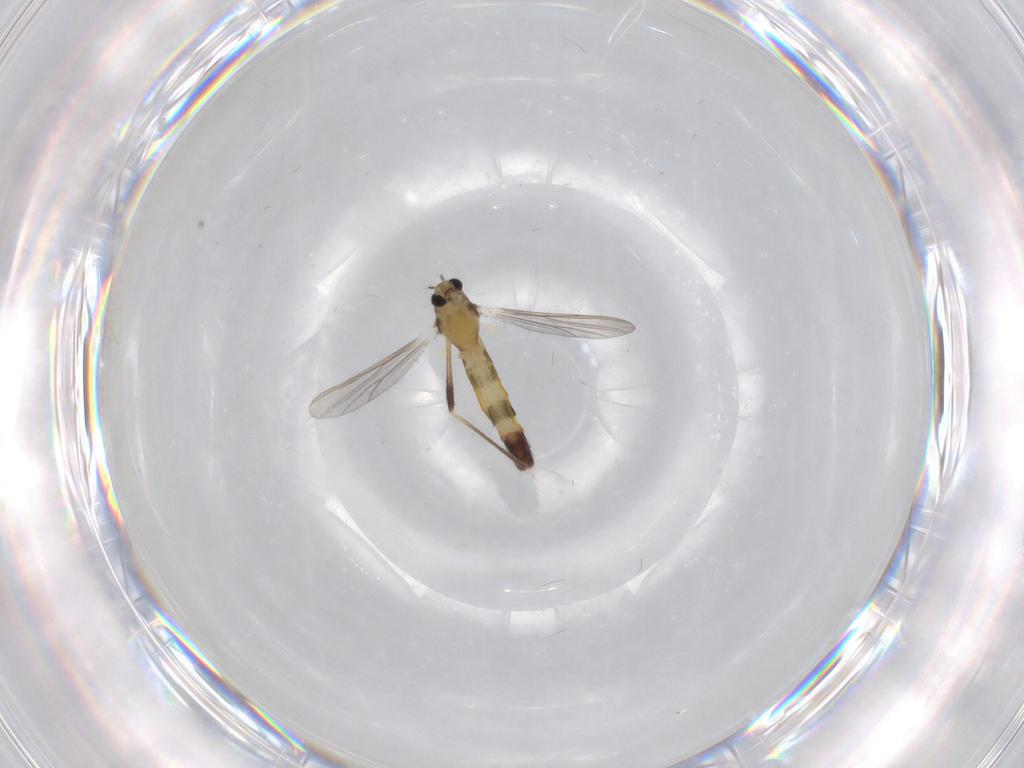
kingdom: Animalia
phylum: Arthropoda
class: Insecta
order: Diptera
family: Chironomidae
